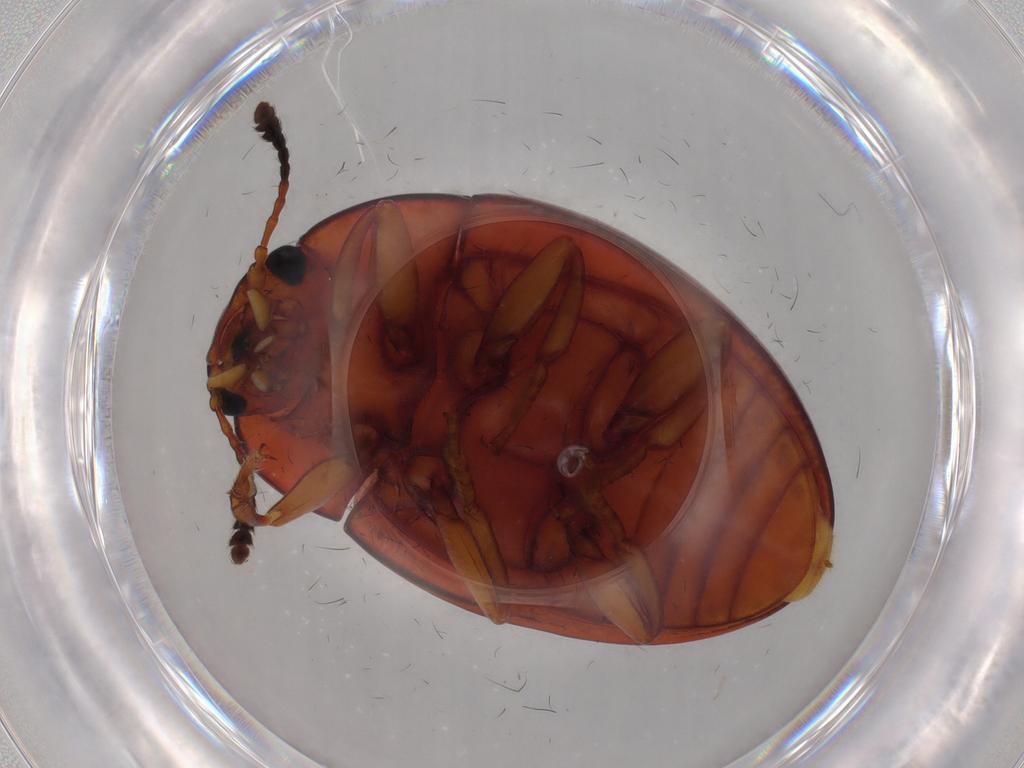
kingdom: Animalia
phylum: Arthropoda
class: Insecta
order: Coleoptera
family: Erotylidae
